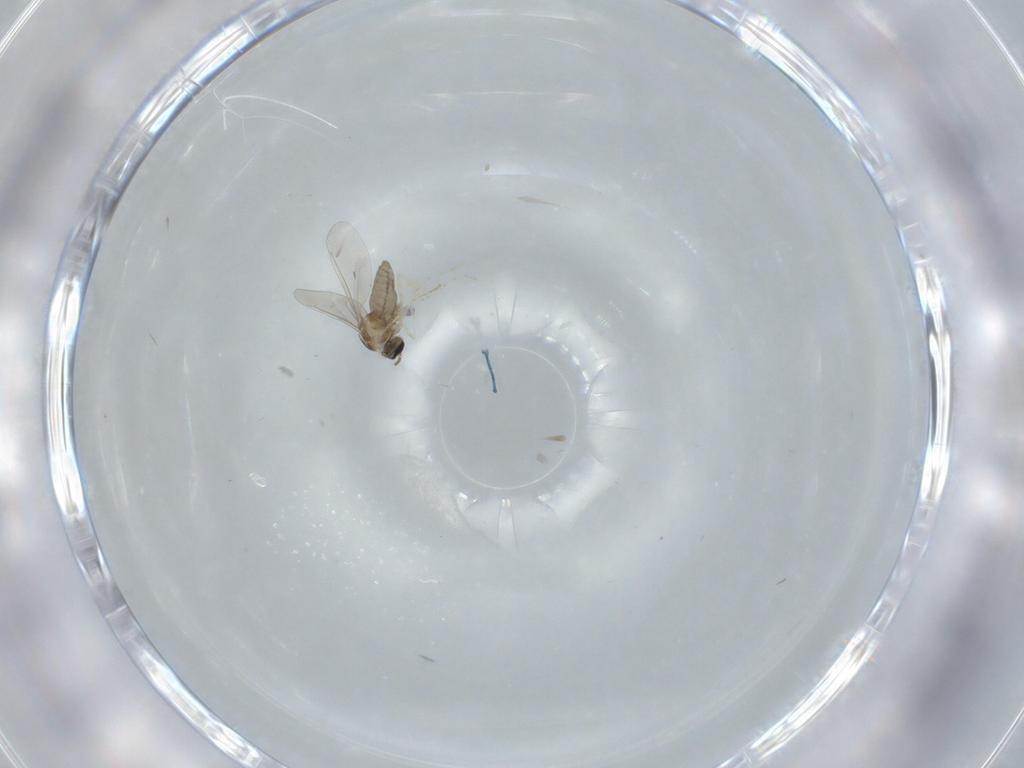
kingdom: Animalia
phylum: Arthropoda
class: Insecta
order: Diptera
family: Cecidomyiidae
